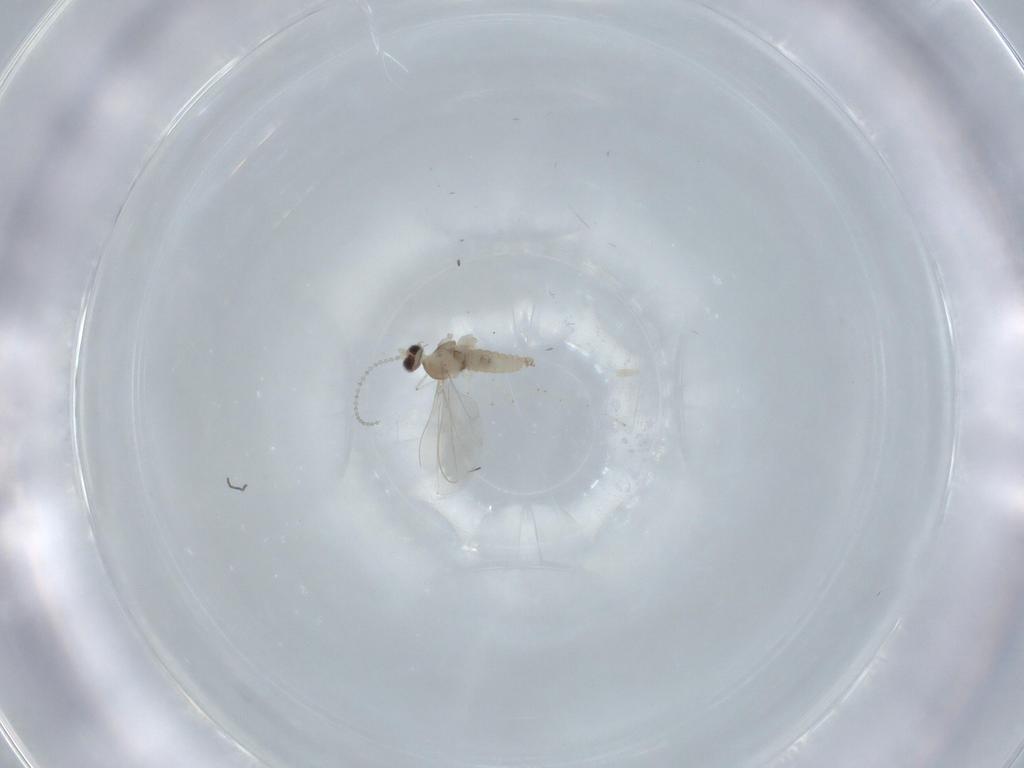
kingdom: Animalia
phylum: Arthropoda
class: Insecta
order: Diptera
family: Cecidomyiidae
